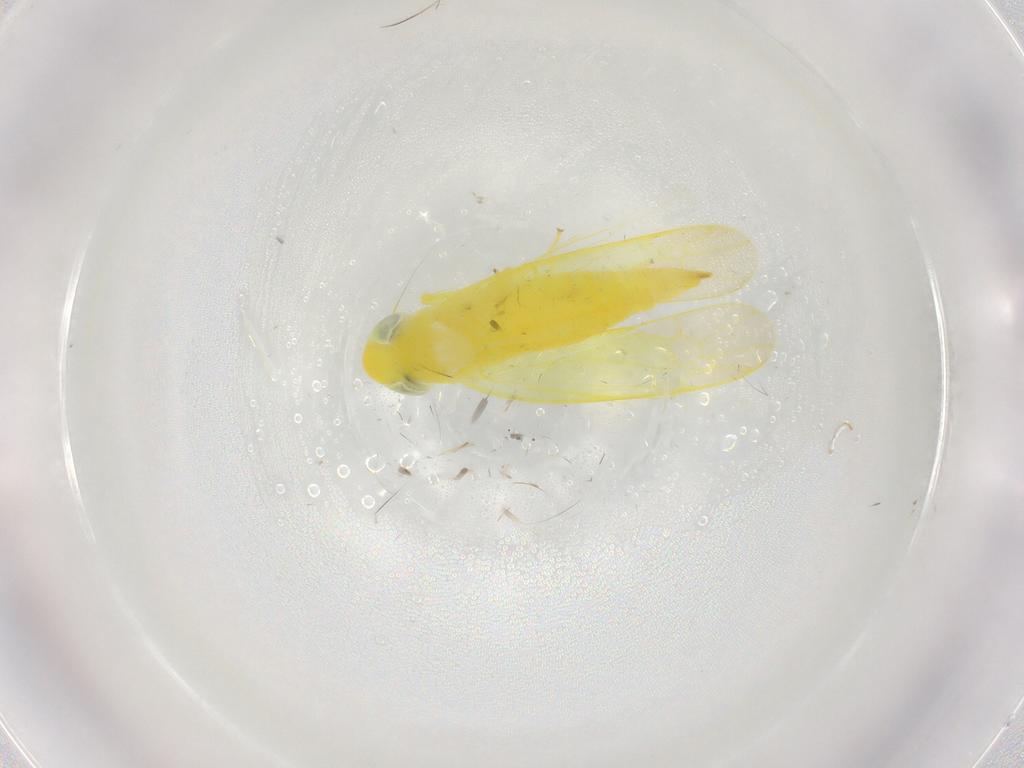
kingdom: Animalia
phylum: Arthropoda
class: Insecta
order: Hemiptera
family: Cicadellidae
